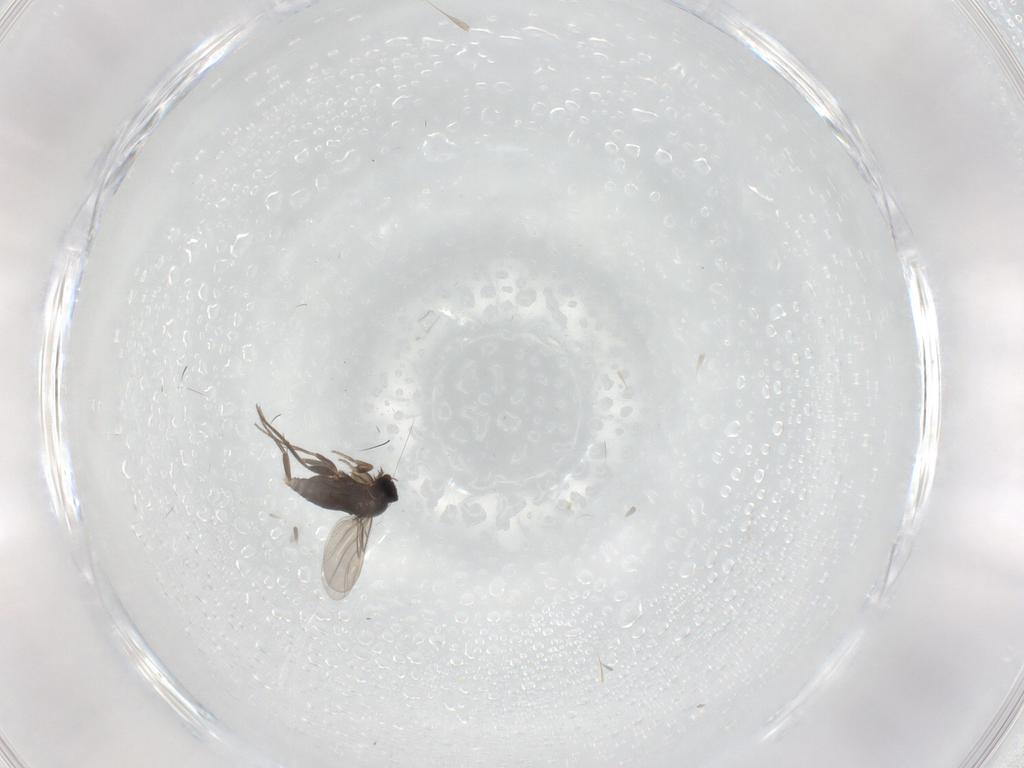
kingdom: Animalia
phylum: Arthropoda
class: Insecta
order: Diptera
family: Phoridae
